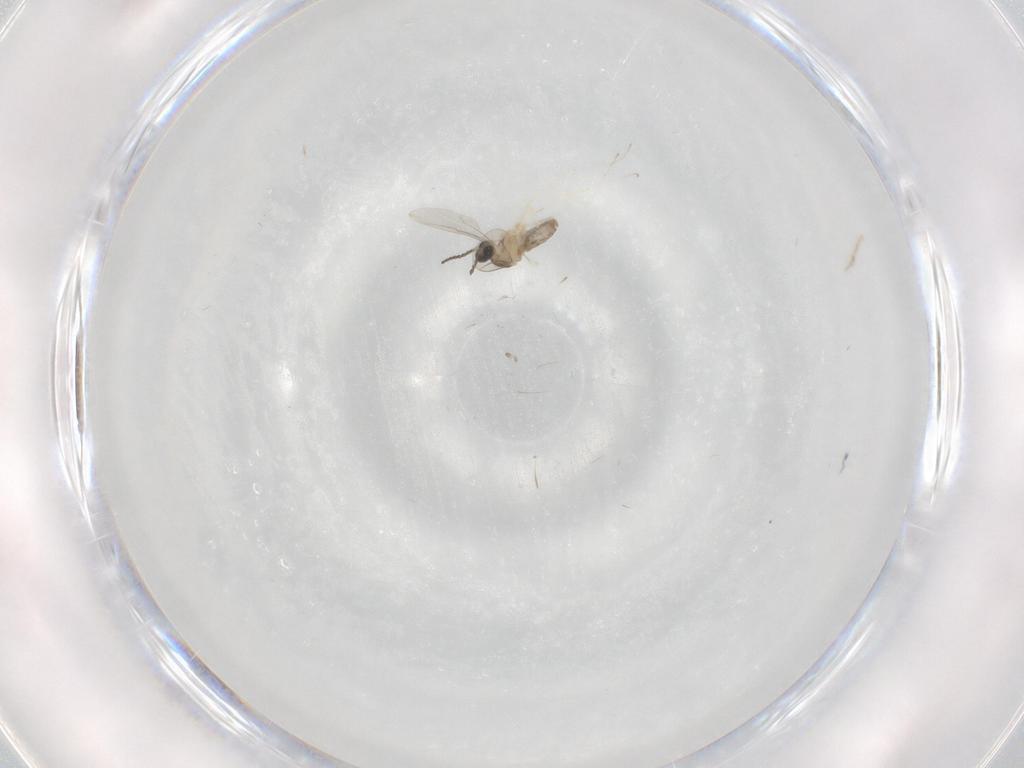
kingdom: Animalia
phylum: Arthropoda
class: Insecta
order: Diptera
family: Cecidomyiidae
